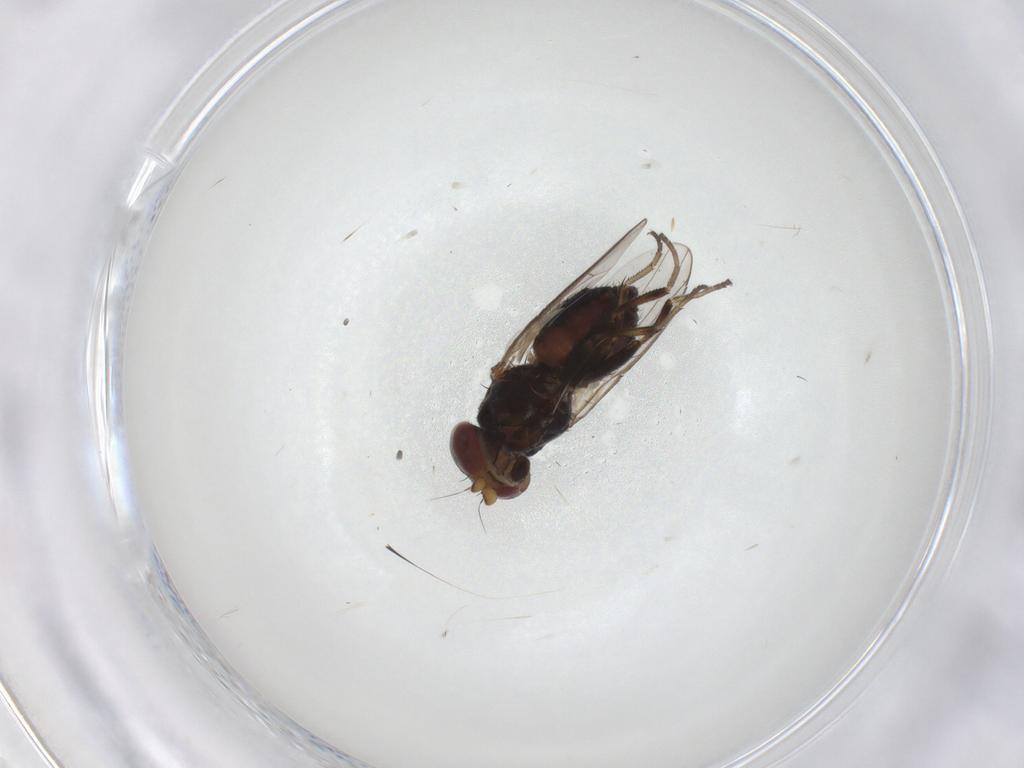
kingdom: Animalia
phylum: Arthropoda
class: Insecta
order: Diptera
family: Heleomyzidae
